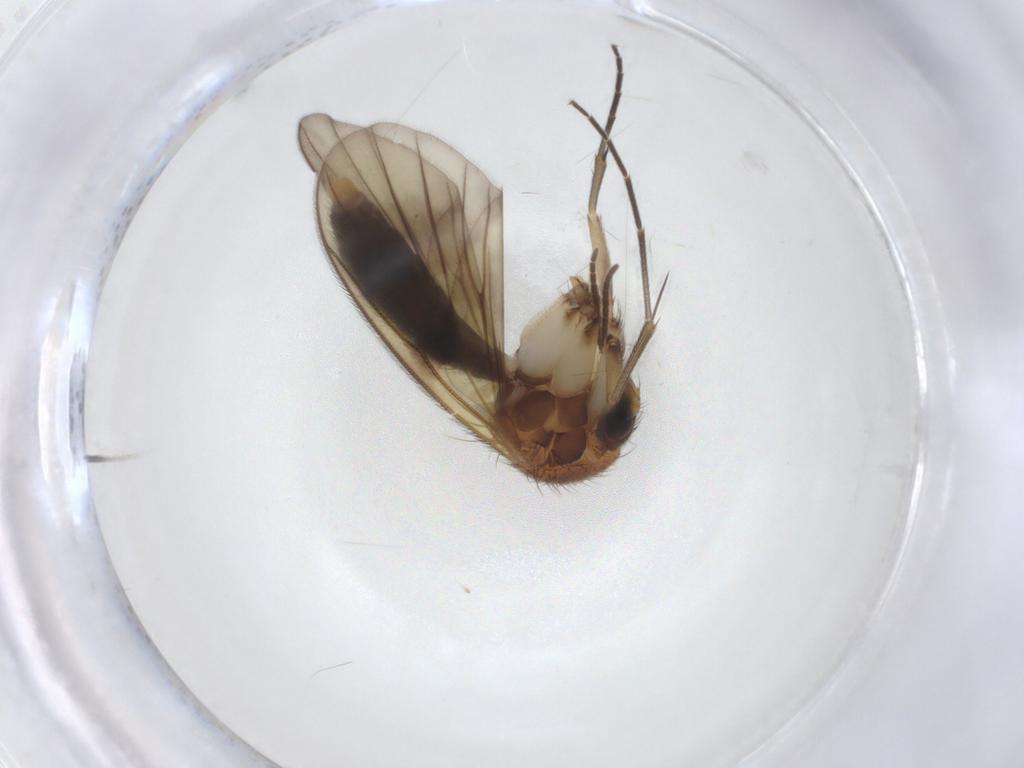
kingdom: Animalia
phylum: Arthropoda
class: Insecta
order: Diptera
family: Mycetophilidae
